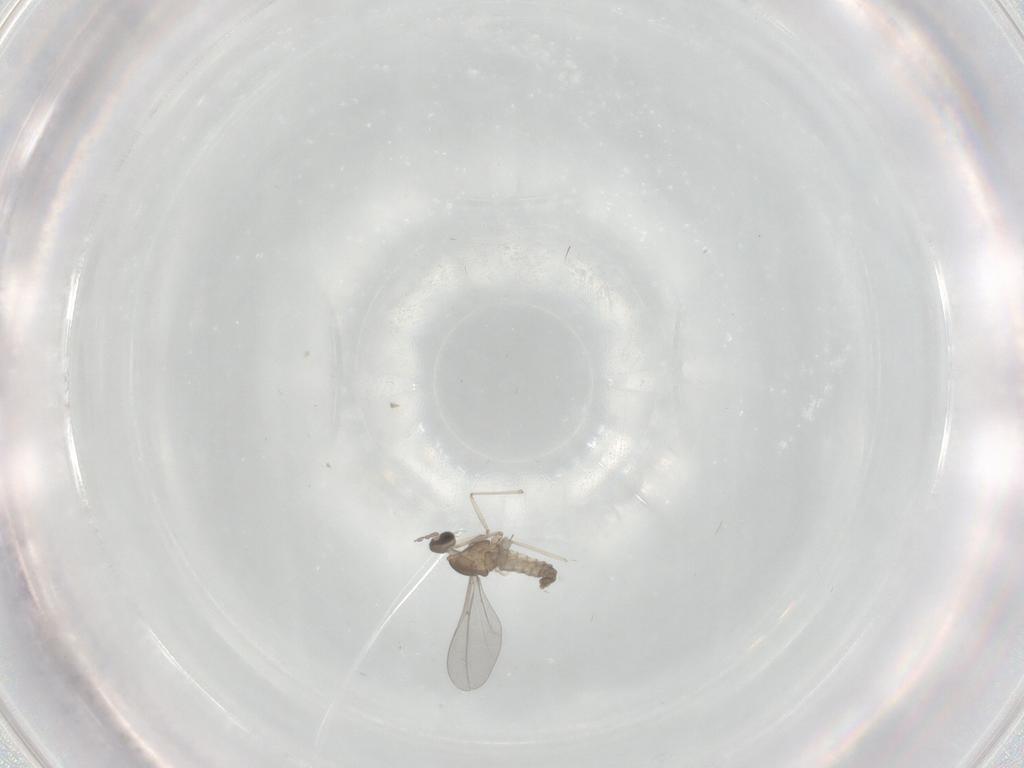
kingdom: Animalia
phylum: Arthropoda
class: Insecta
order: Diptera
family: Cecidomyiidae
